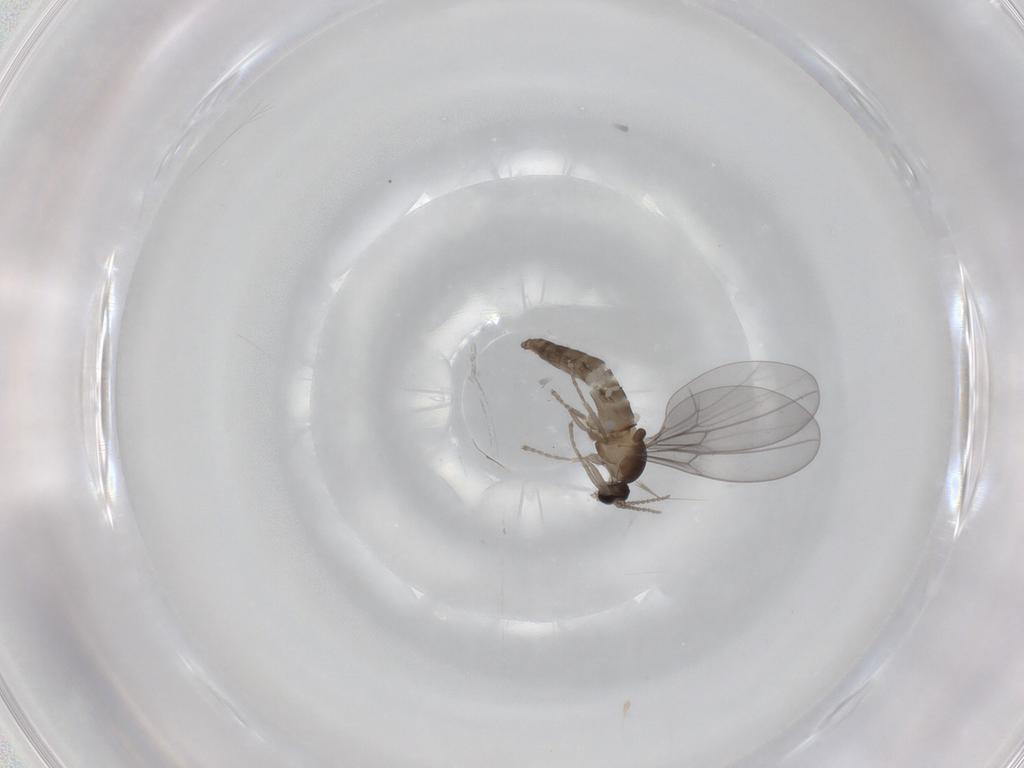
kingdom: Animalia
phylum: Arthropoda
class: Insecta
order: Diptera
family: Cecidomyiidae
